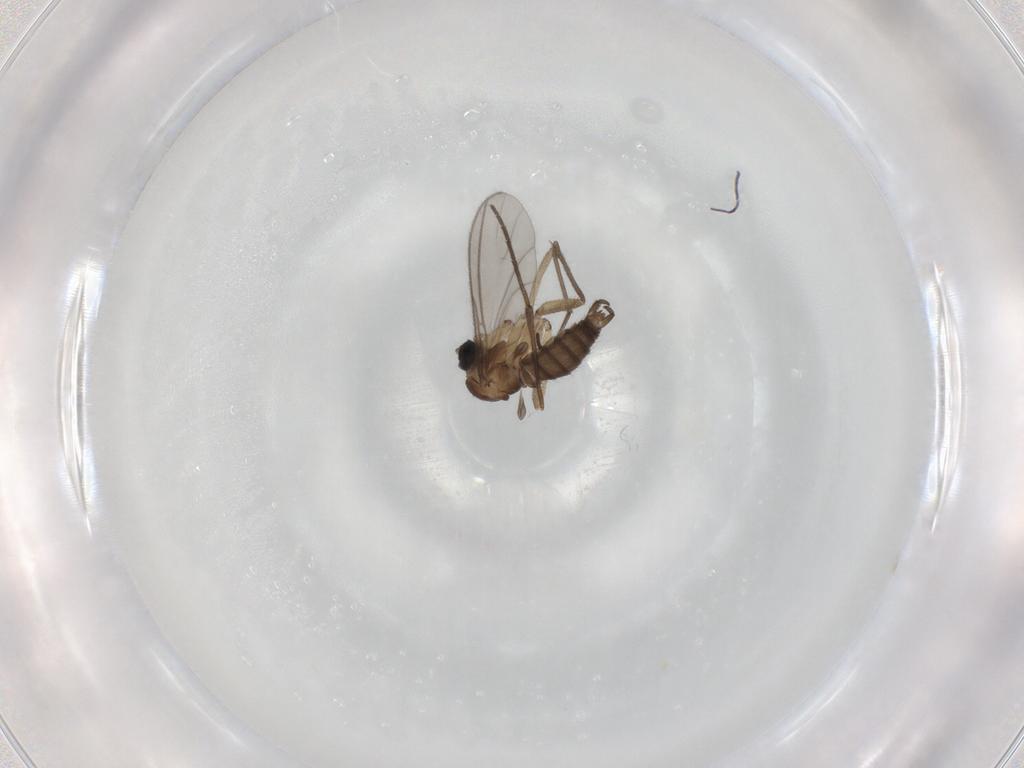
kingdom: Animalia
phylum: Arthropoda
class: Insecta
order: Diptera
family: Sciaridae
